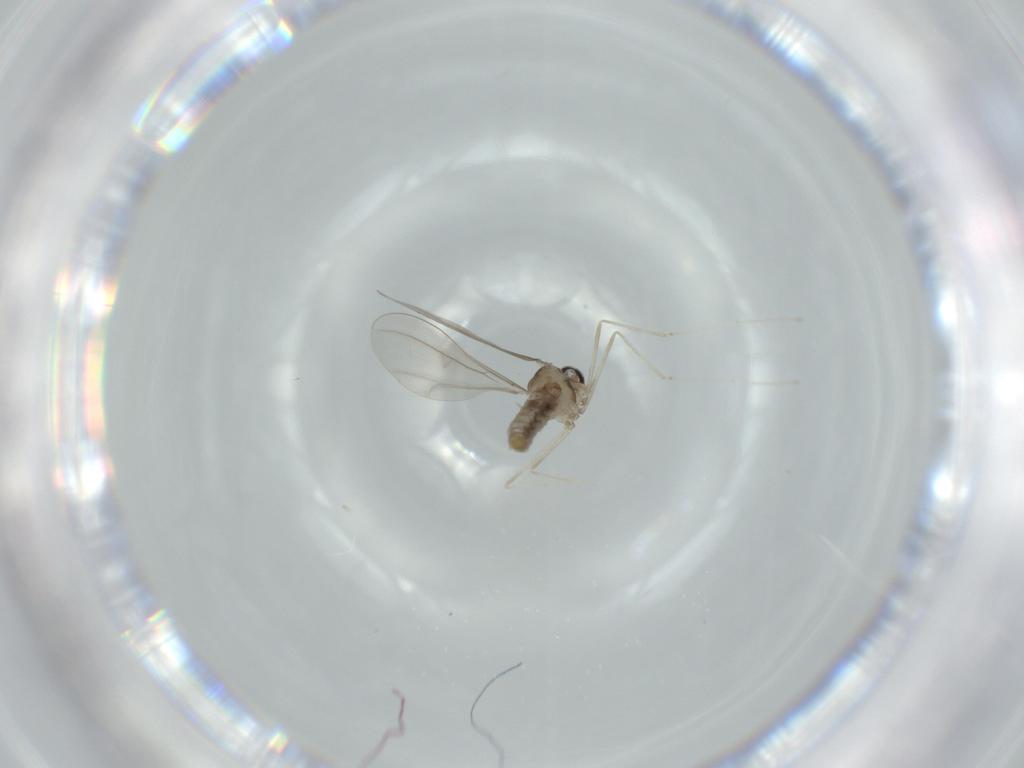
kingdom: Animalia
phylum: Arthropoda
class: Insecta
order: Diptera
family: Cecidomyiidae
